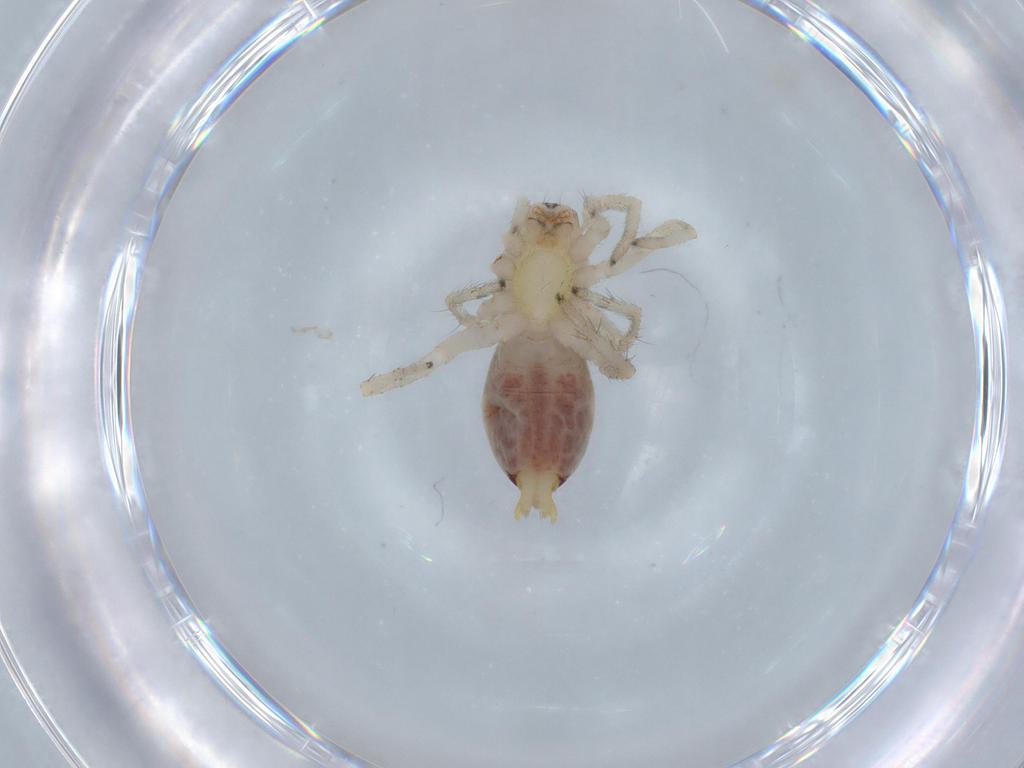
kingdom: Animalia
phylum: Arthropoda
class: Arachnida
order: Araneae
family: Clubionidae
